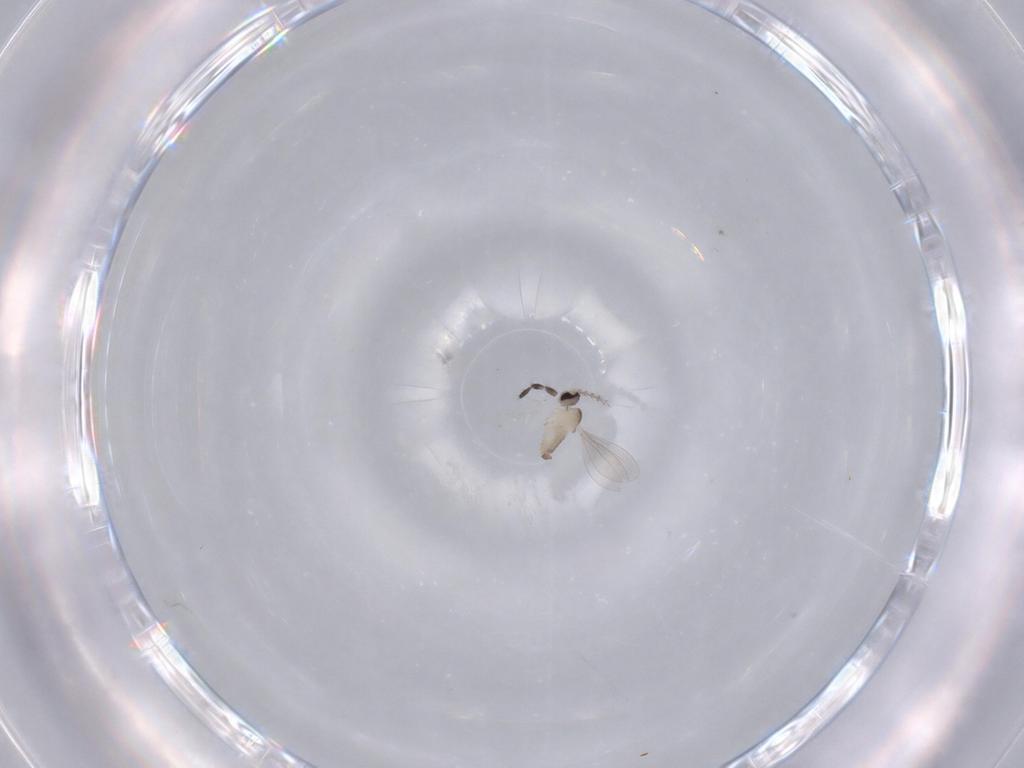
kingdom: Animalia
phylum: Arthropoda
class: Insecta
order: Diptera
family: Cecidomyiidae
